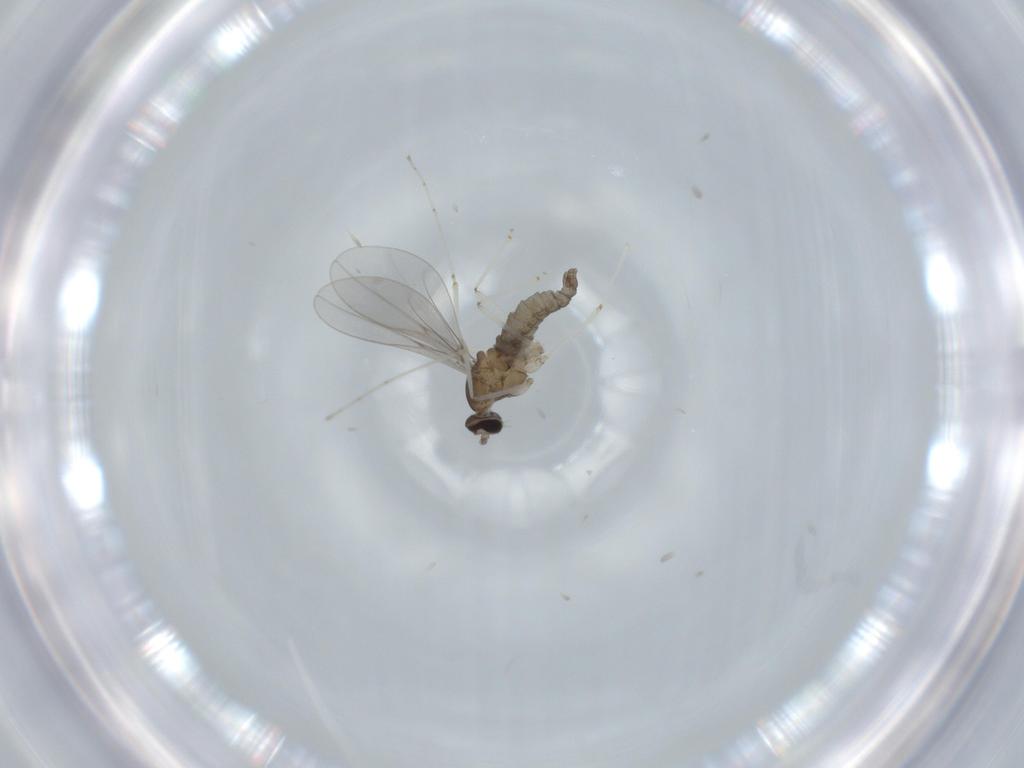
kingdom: Animalia
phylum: Arthropoda
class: Insecta
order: Diptera
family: Cecidomyiidae
